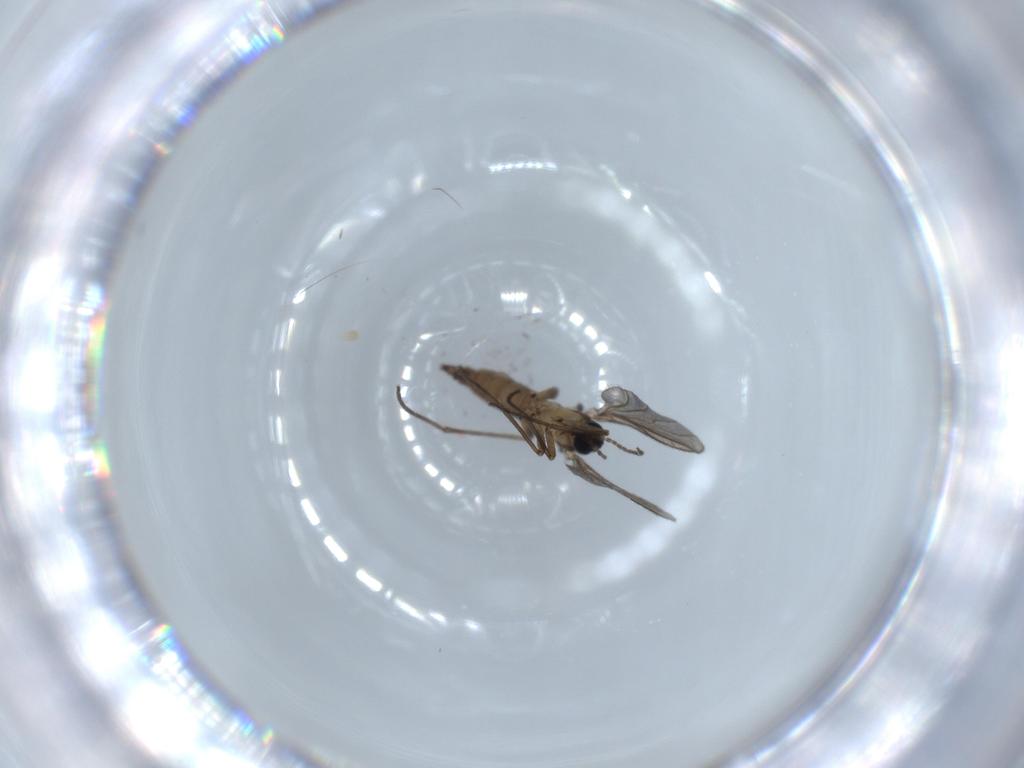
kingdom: Animalia
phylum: Arthropoda
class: Insecta
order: Diptera
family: Sciaridae
